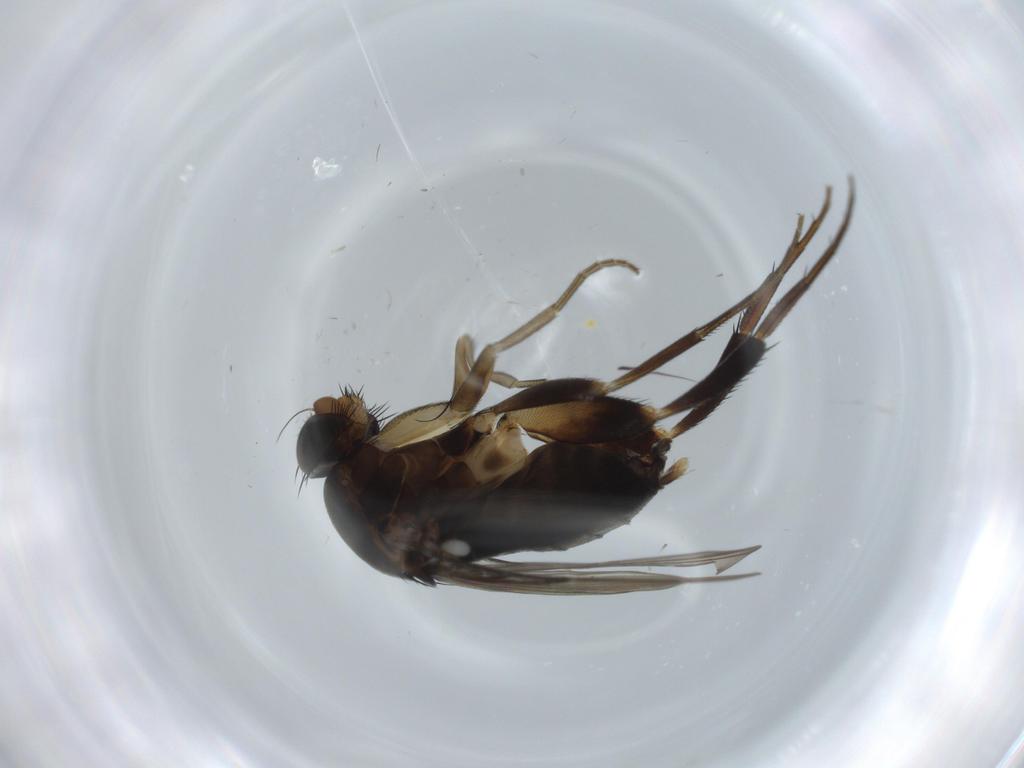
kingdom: Animalia
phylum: Arthropoda
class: Insecta
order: Diptera
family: Phoridae
